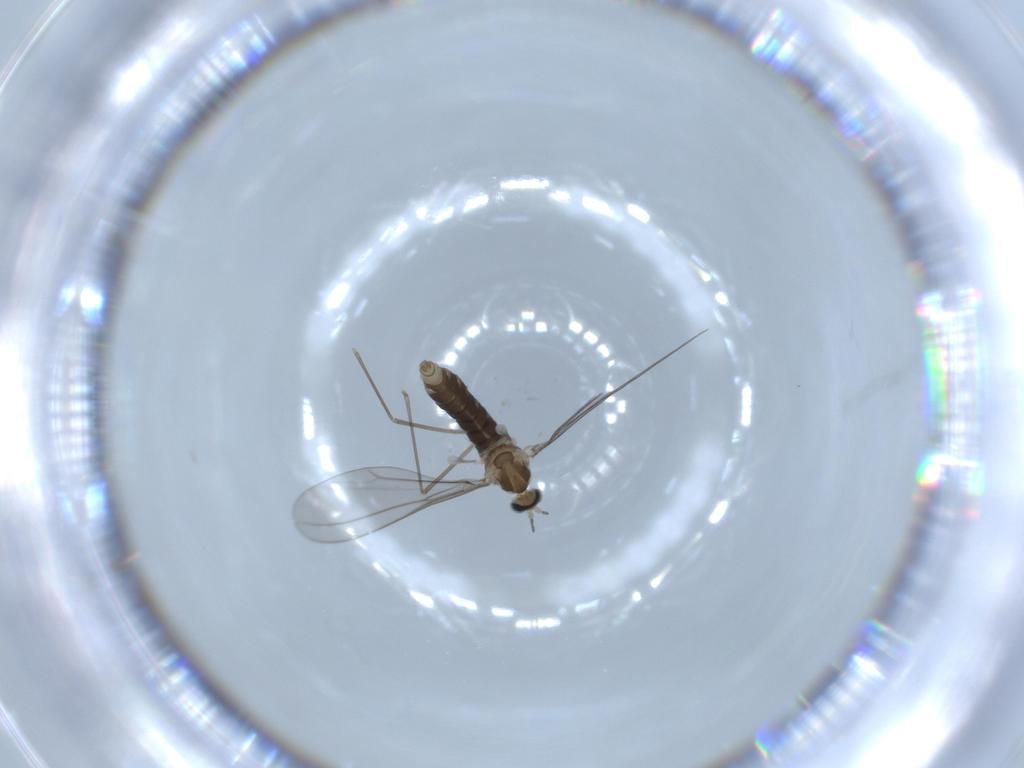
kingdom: Animalia
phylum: Arthropoda
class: Insecta
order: Diptera
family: Cecidomyiidae
